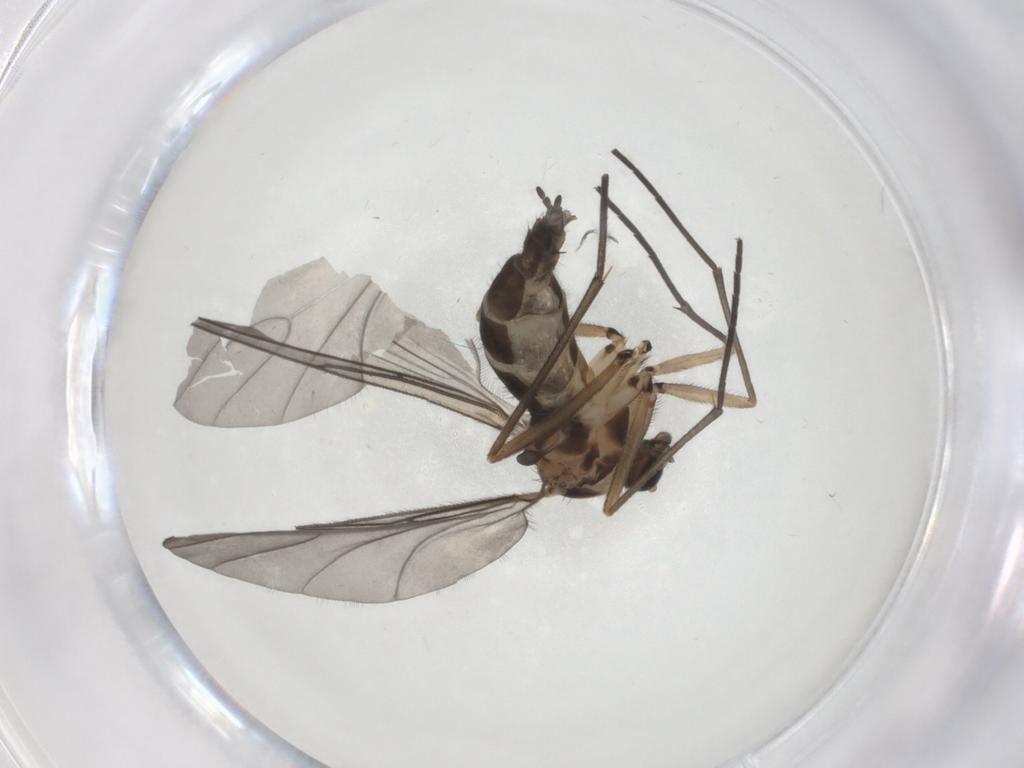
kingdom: Animalia
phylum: Arthropoda
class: Insecta
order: Diptera
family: Sciaridae
